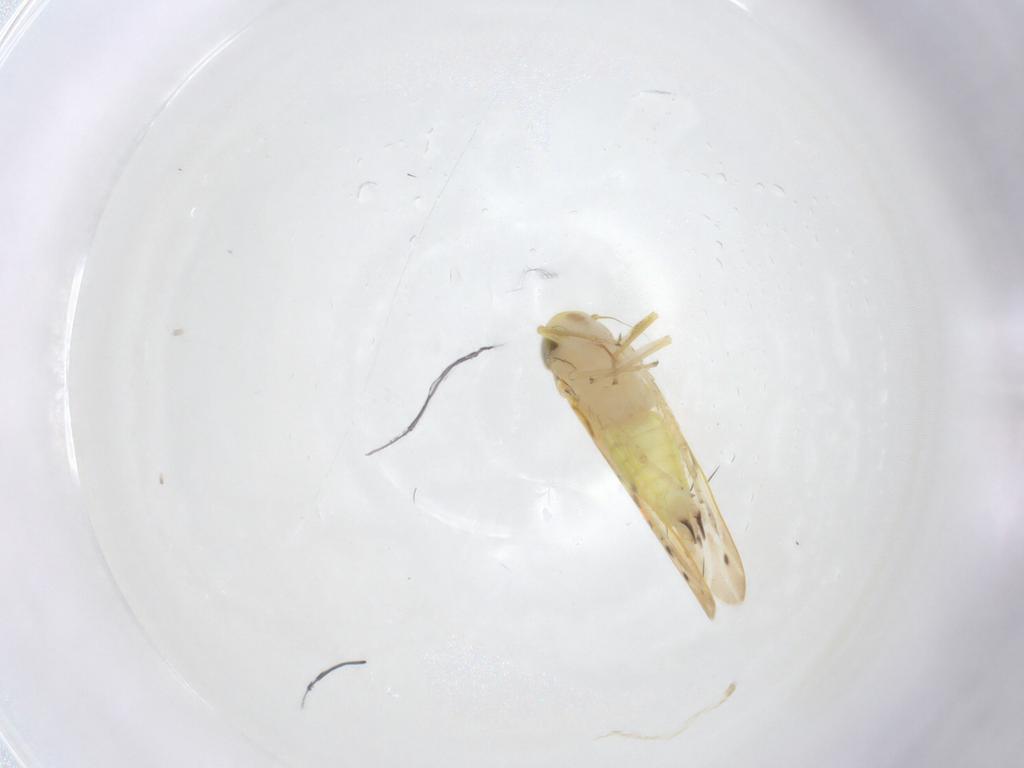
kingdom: Animalia
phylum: Arthropoda
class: Insecta
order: Hemiptera
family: Cicadellidae
